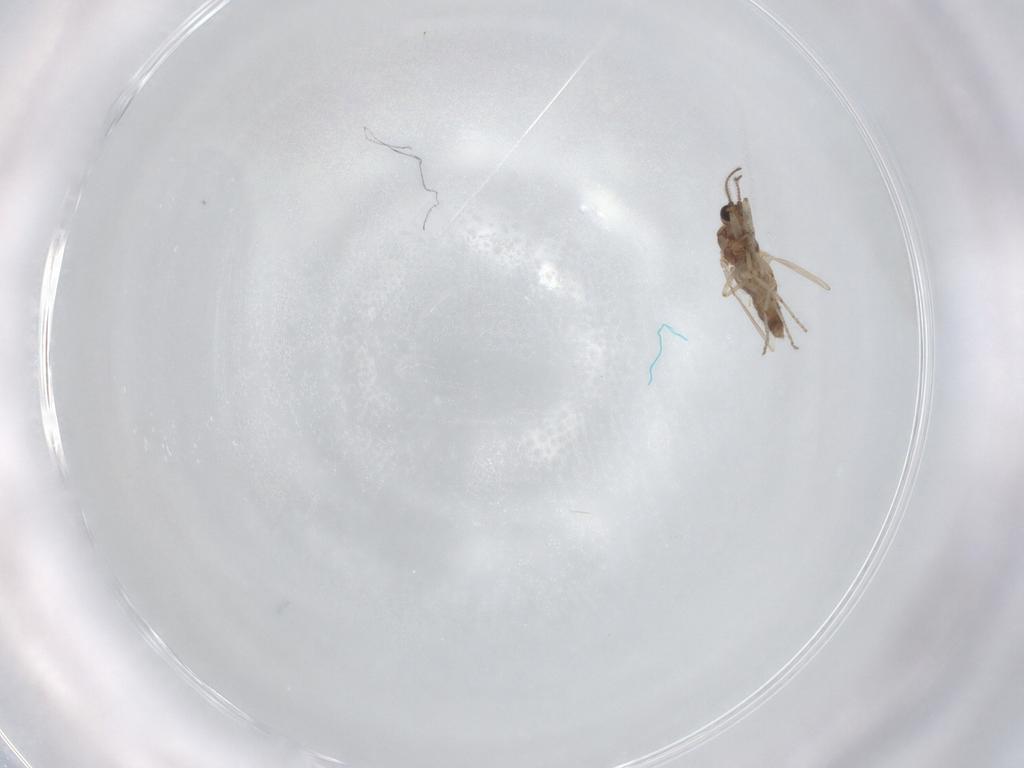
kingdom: Animalia
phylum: Arthropoda
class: Insecta
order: Diptera
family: Ceratopogonidae
